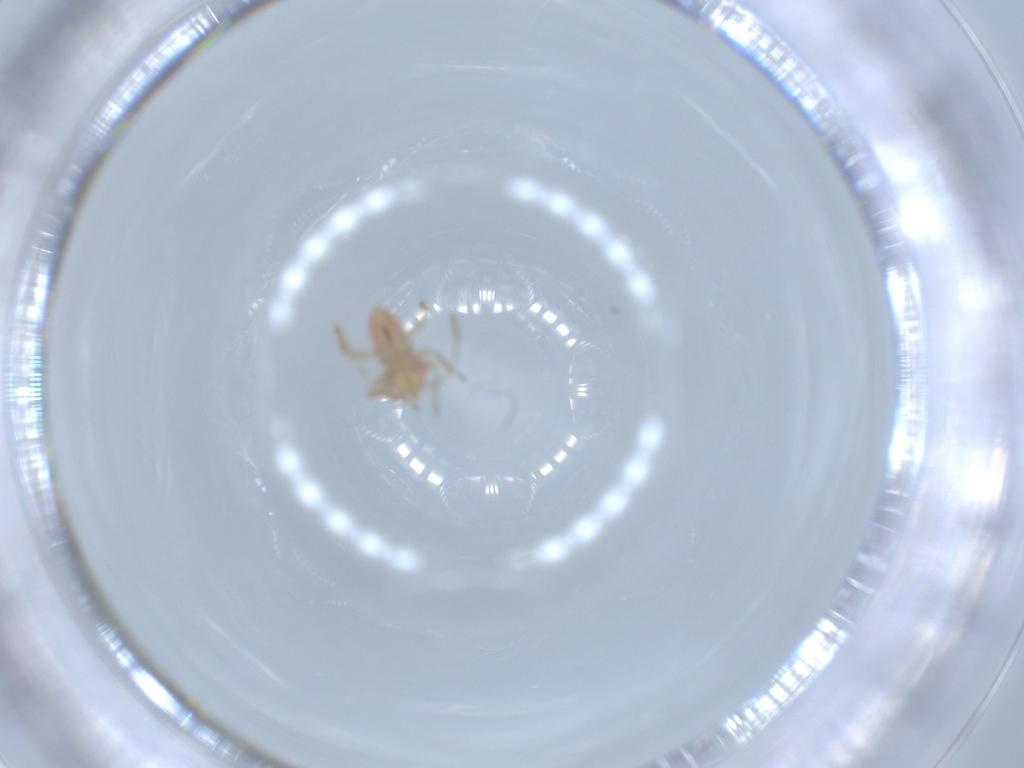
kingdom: Animalia
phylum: Arthropoda
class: Insecta
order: Hemiptera
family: Miridae
